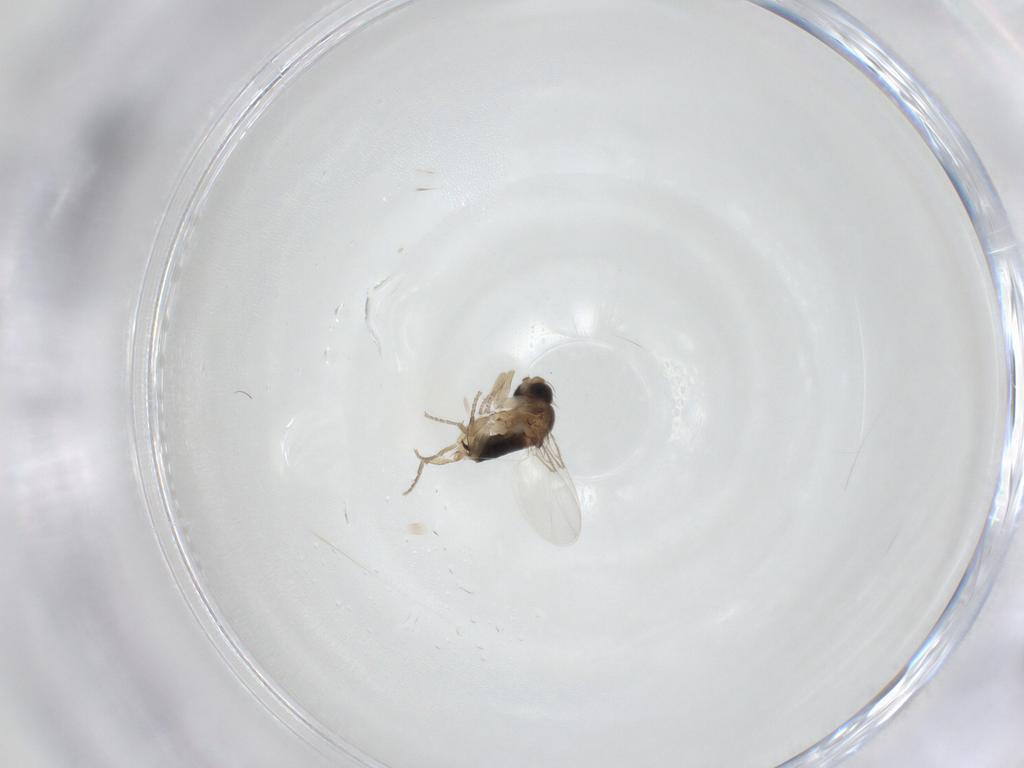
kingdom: Animalia
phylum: Arthropoda
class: Insecta
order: Diptera
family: Phoridae
